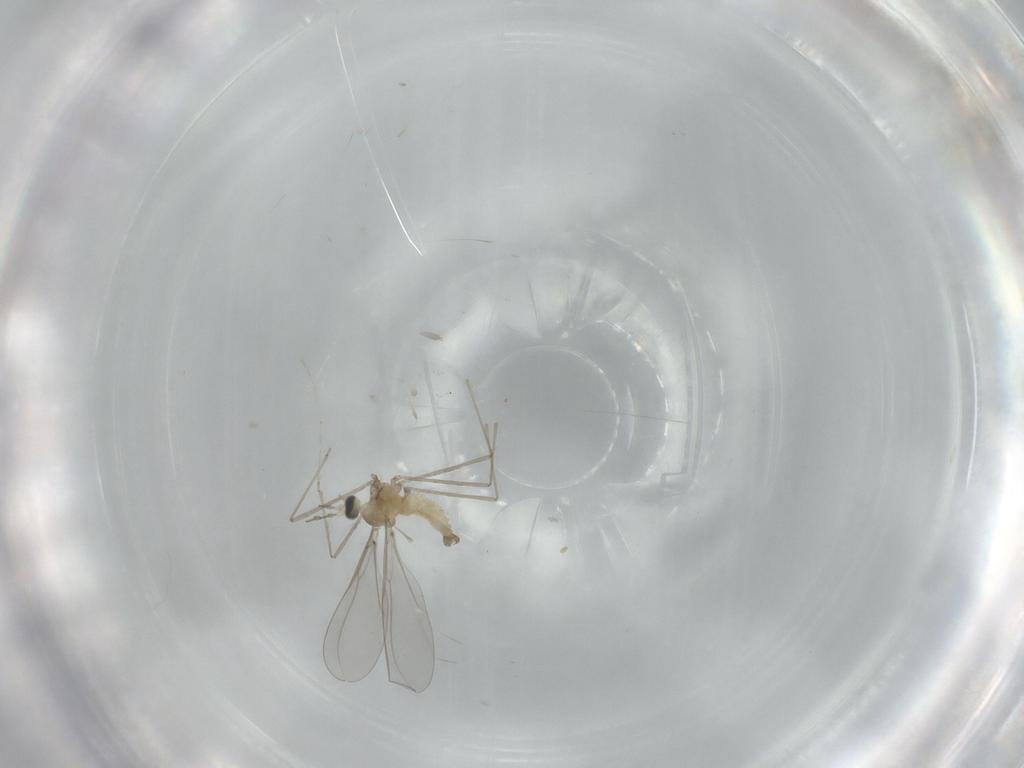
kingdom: Animalia
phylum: Arthropoda
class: Insecta
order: Diptera
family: Cecidomyiidae
